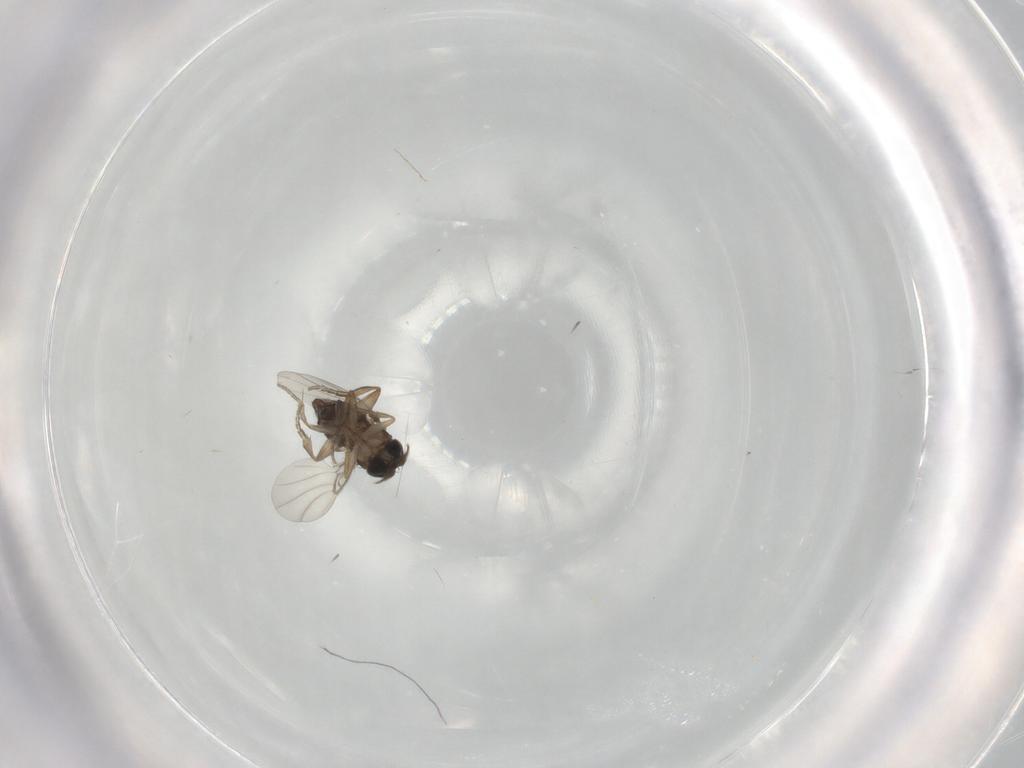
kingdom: Animalia
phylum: Arthropoda
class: Insecta
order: Diptera
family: Phoridae
